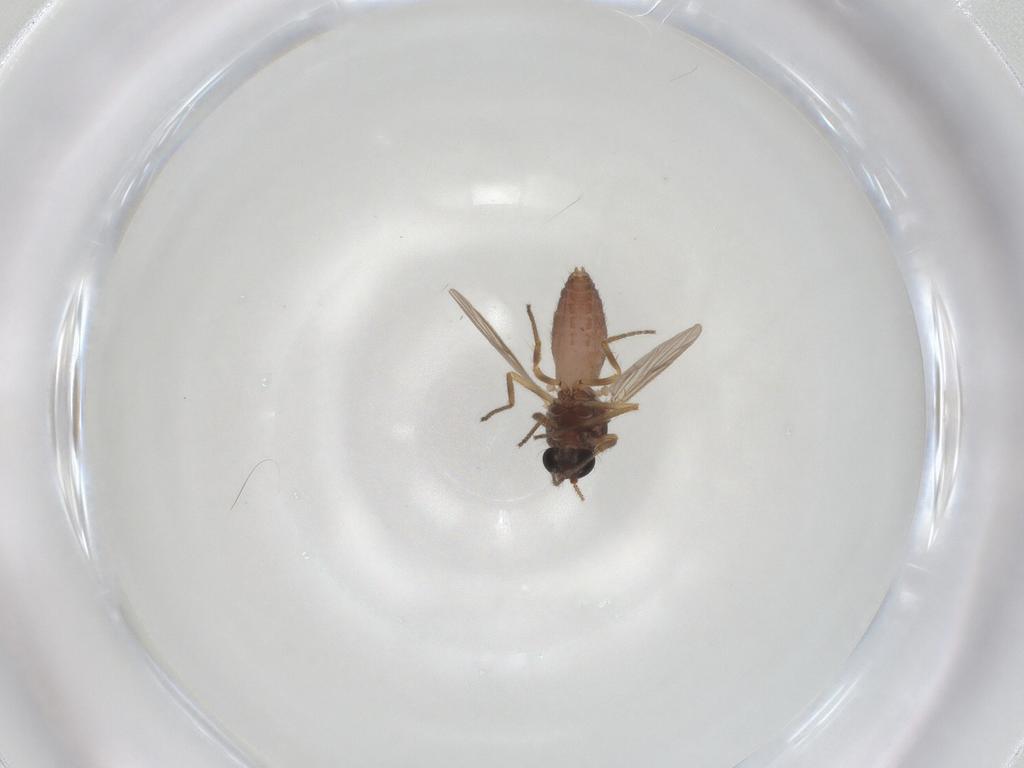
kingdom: Animalia
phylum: Arthropoda
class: Insecta
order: Diptera
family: Ceratopogonidae
